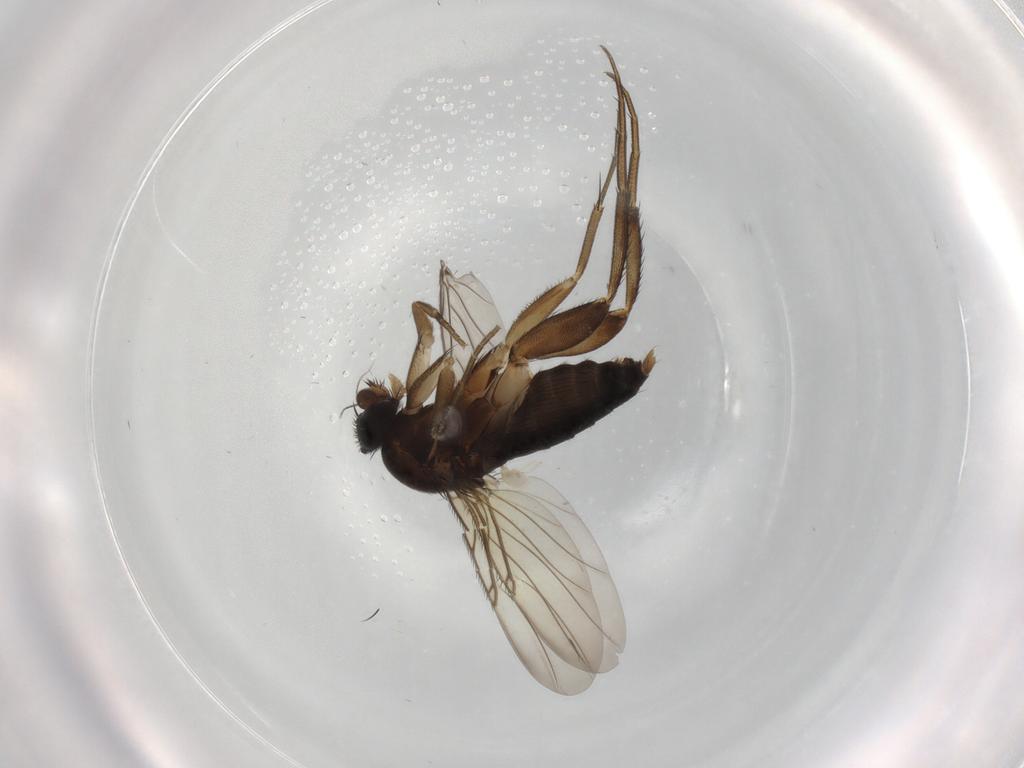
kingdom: Animalia
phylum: Arthropoda
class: Insecta
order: Diptera
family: Phoridae
